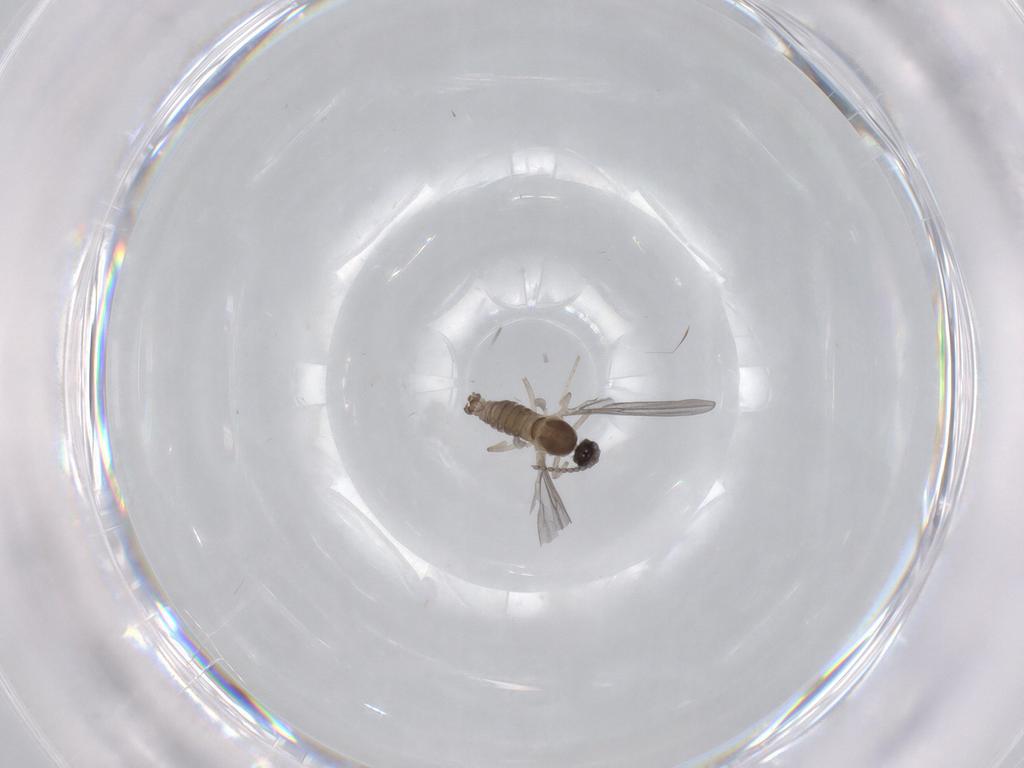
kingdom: Animalia
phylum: Arthropoda
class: Insecta
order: Diptera
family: Cecidomyiidae
